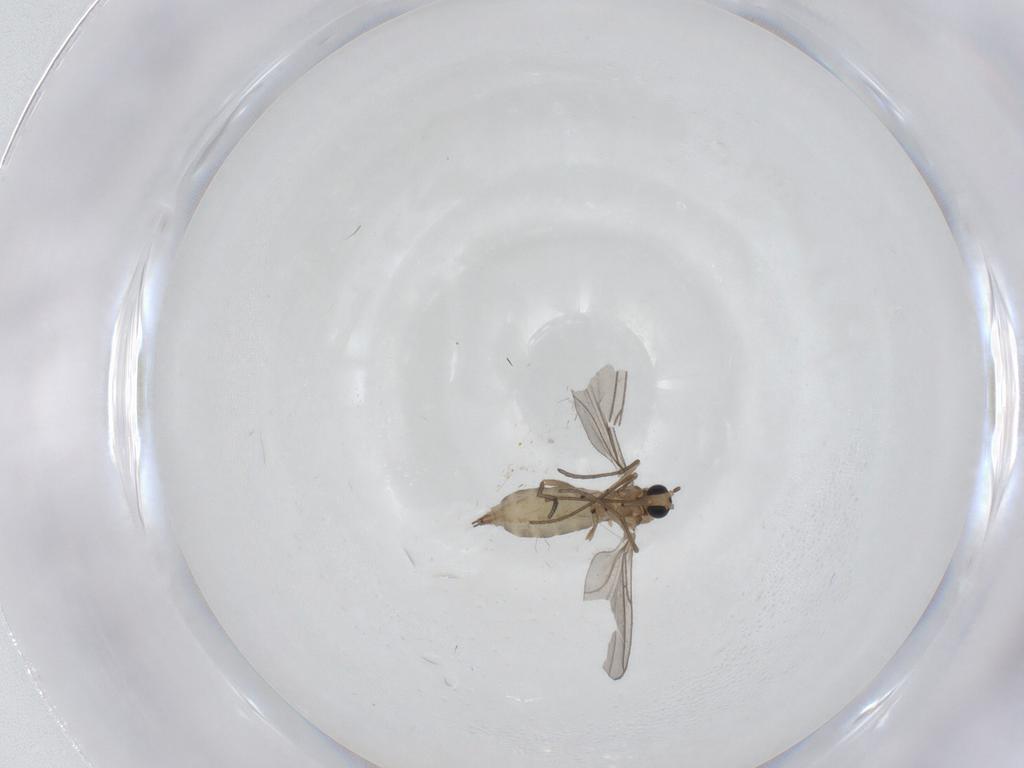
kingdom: Animalia
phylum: Arthropoda
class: Insecta
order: Diptera
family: Sciaridae
